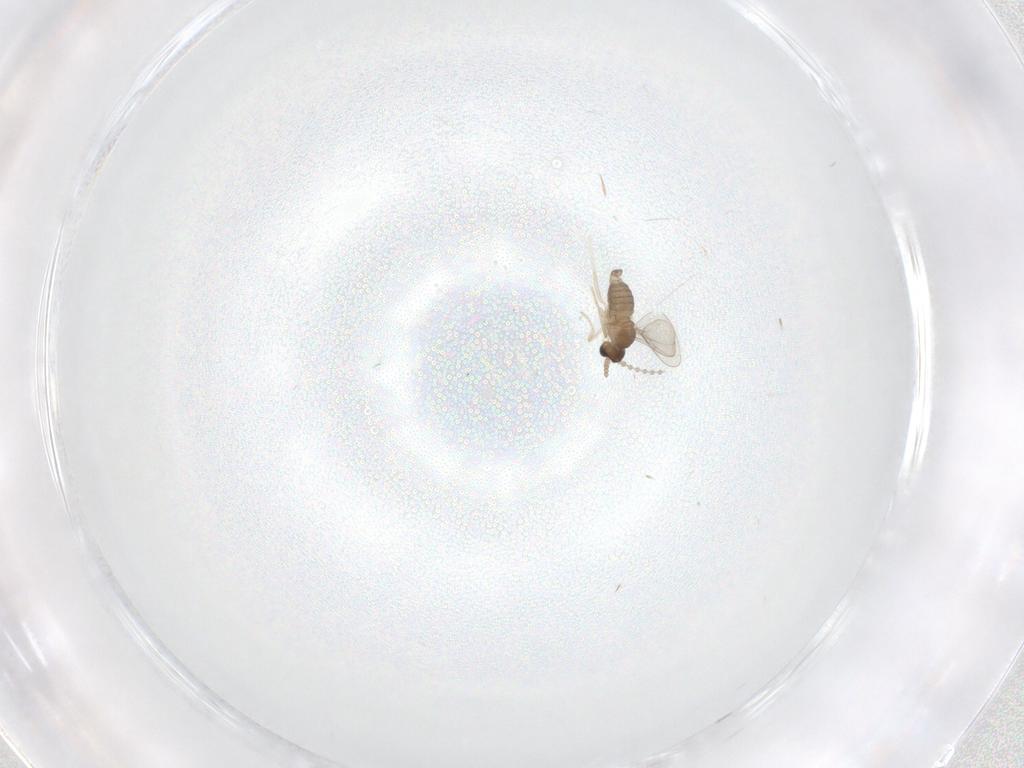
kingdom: Animalia
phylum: Arthropoda
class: Insecta
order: Diptera
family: Cecidomyiidae
